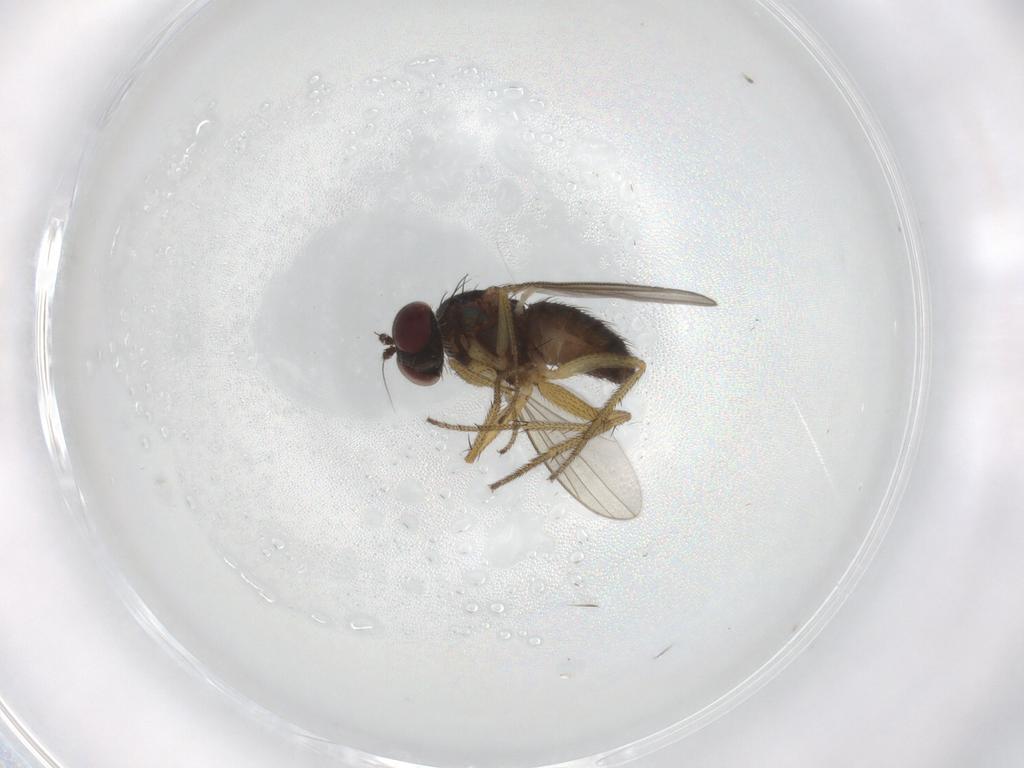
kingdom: Animalia
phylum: Arthropoda
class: Insecta
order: Diptera
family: Dolichopodidae
